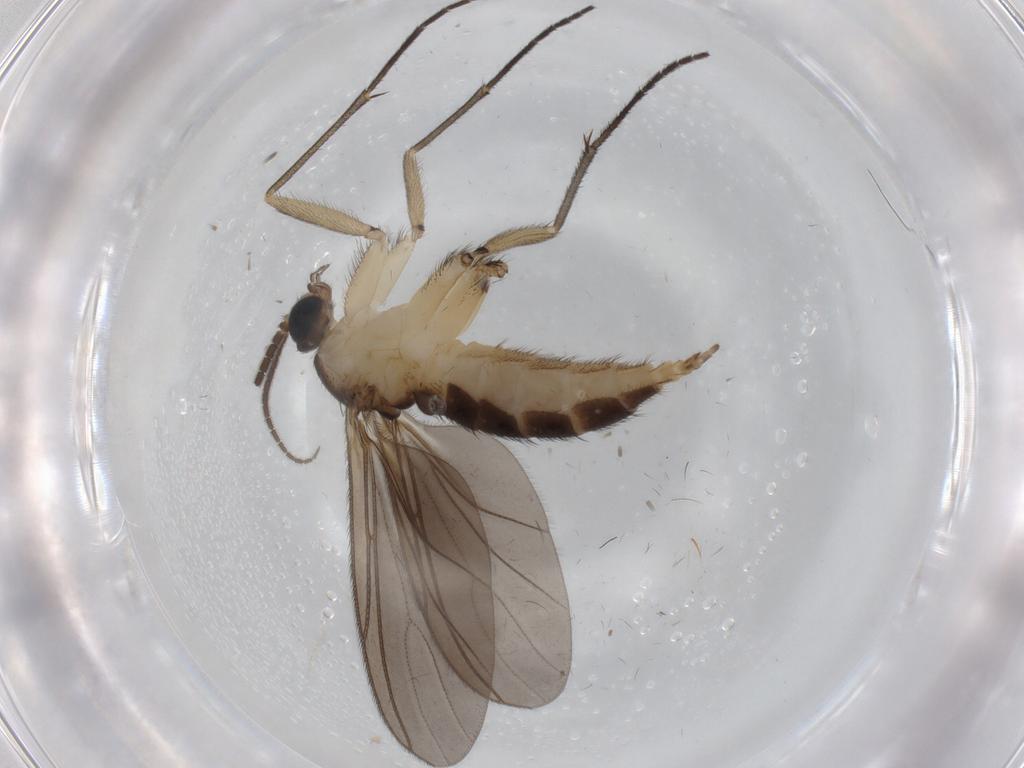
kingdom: Animalia
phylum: Arthropoda
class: Insecta
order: Diptera
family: Sciaridae
